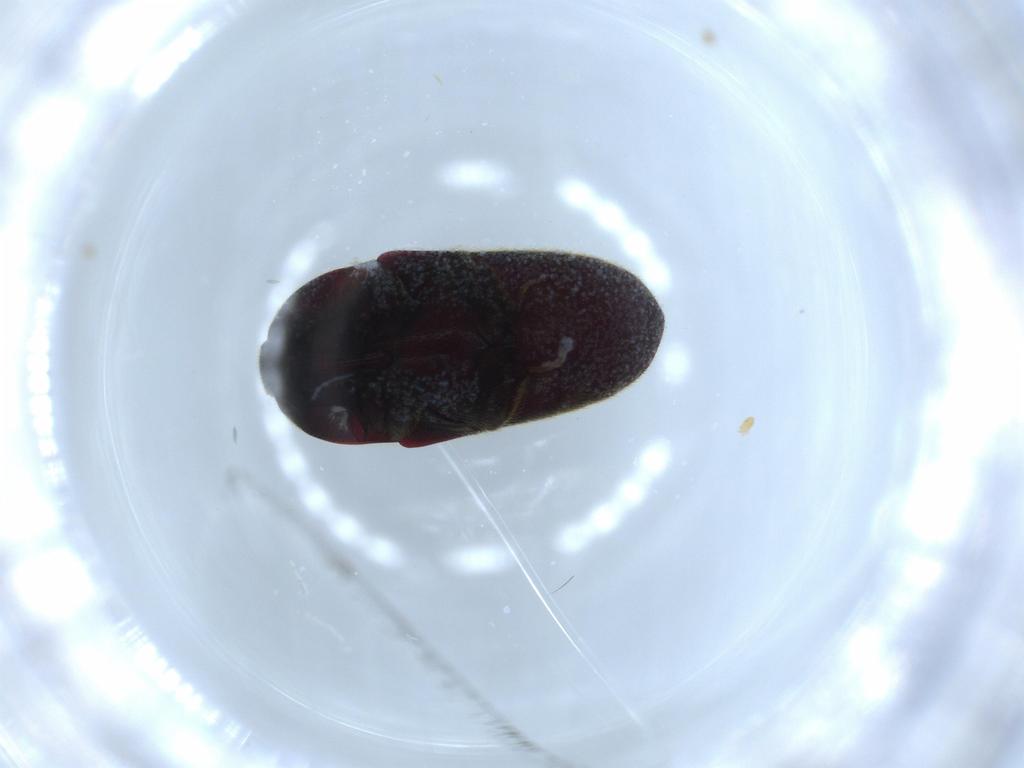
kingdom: Animalia
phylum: Arthropoda
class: Insecta
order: Coleoptera
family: Throscidae
